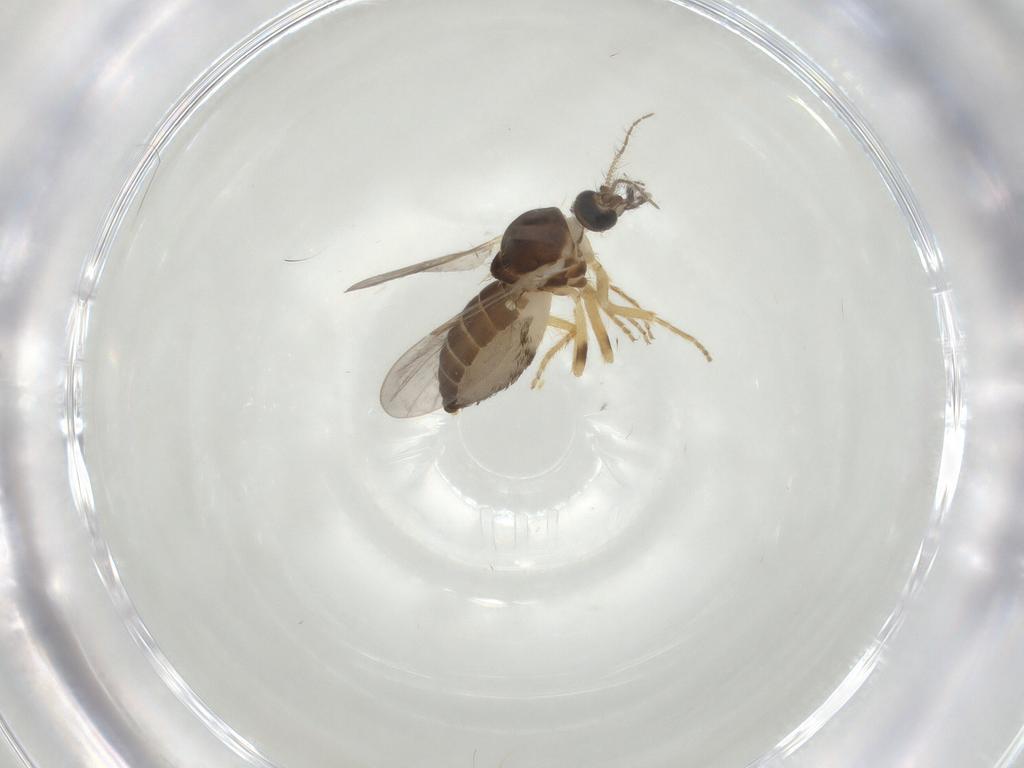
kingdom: Animalia
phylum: Arthropoda
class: Insecta
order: Diptera
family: Ceratopogonidae
